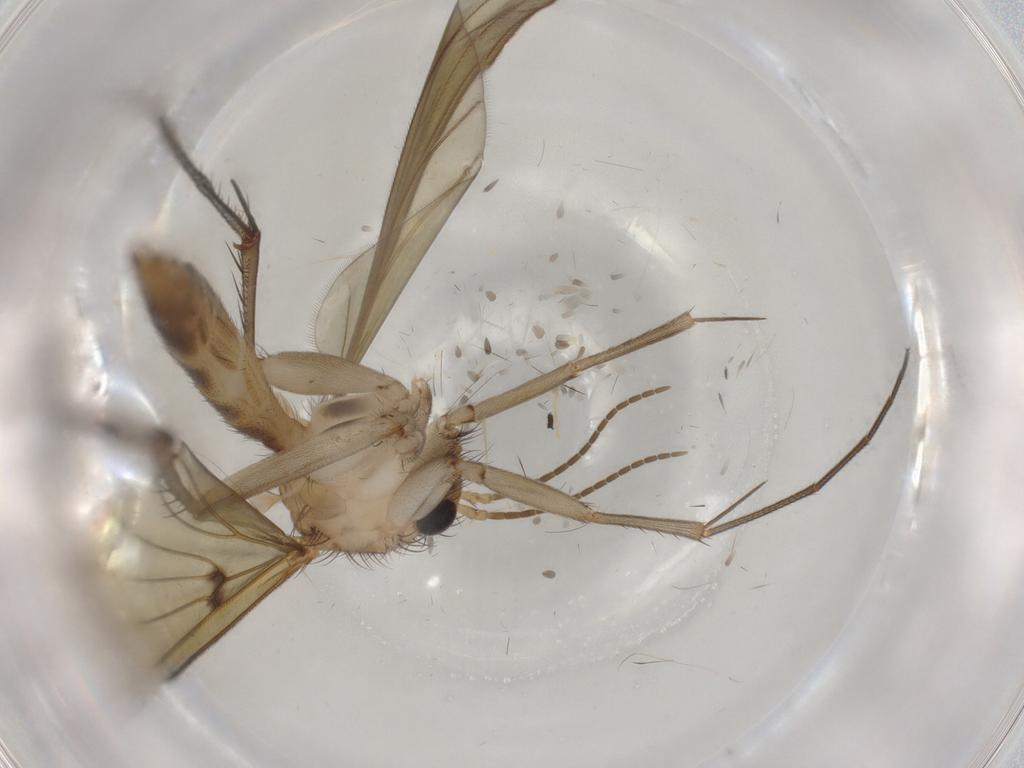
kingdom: Animalia
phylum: Arthropoda
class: Insecta
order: Diptera
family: Mycetophilidae
